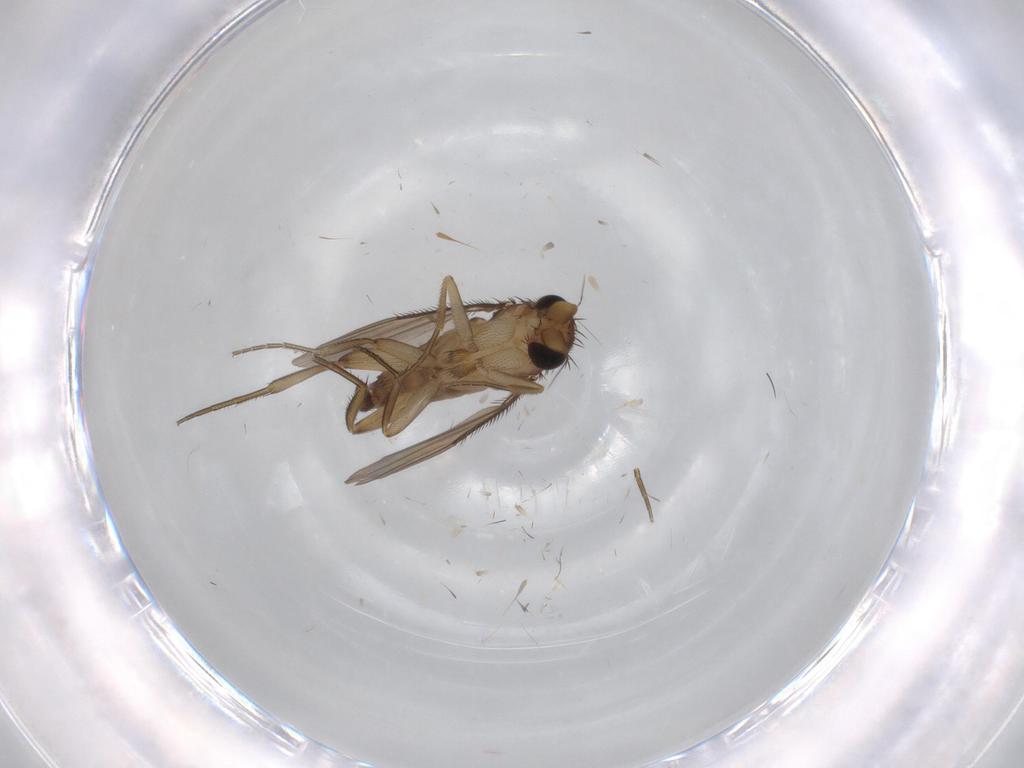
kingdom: Animalia
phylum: Arthropoda
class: Insecta
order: Diptera
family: Phoridae
